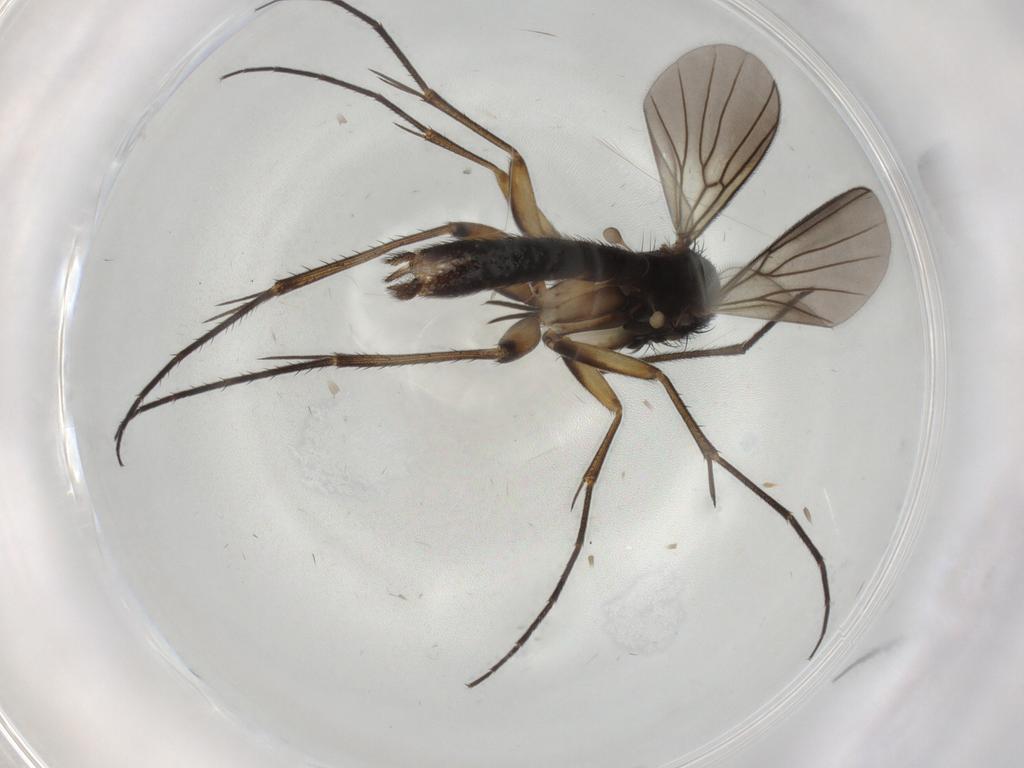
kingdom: Animalia
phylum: Arthropoda
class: Insecta
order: Diptera
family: Mycetophilidae
